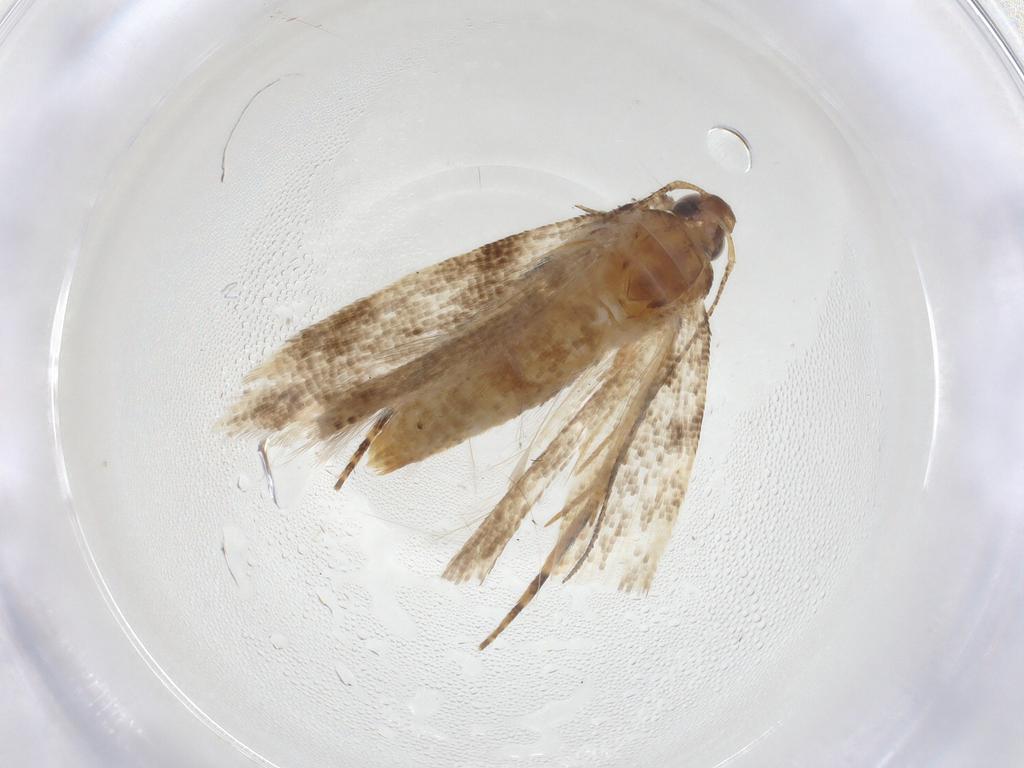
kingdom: Animalia
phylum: Arthropoda
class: Insecta
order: Lepidoptera
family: Gelechiidae
